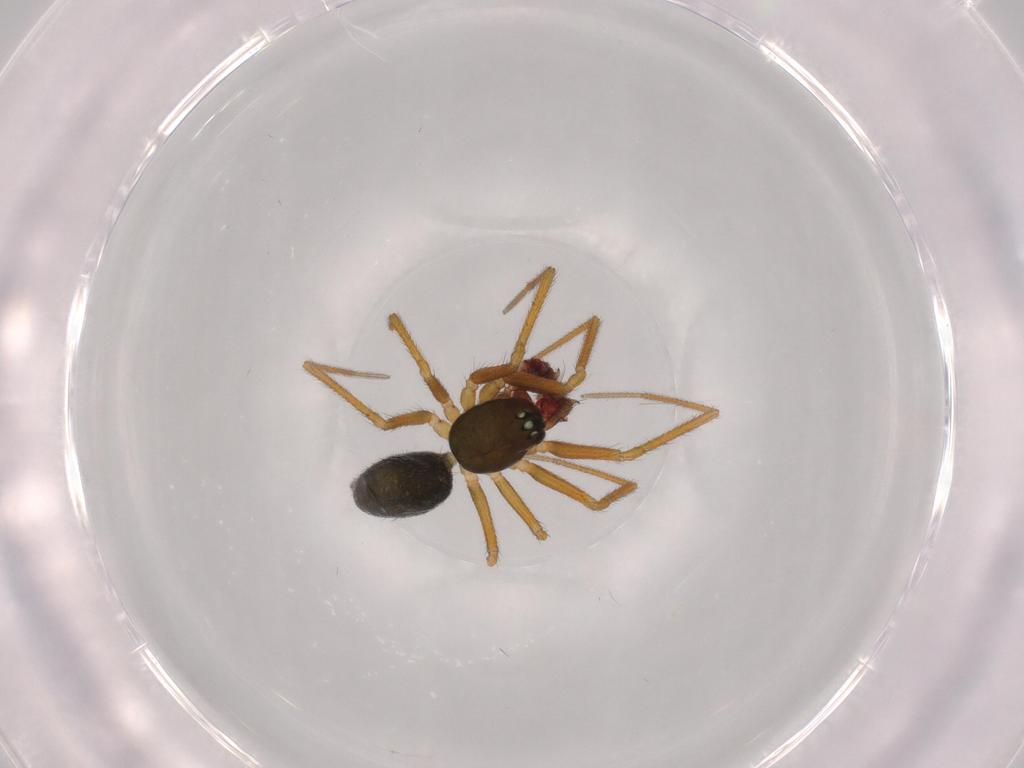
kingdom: Animalia
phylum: Arthropoda
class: Arachnida
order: Araneae
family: Linyphiidae
